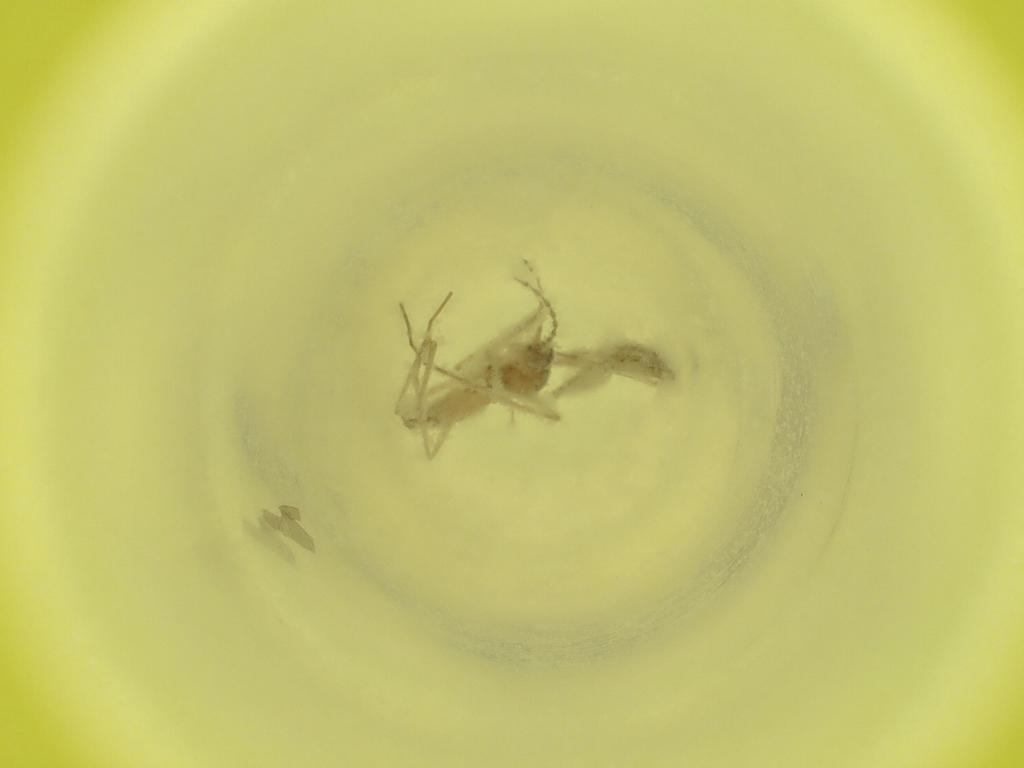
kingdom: Animalia
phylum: Arthropoda
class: Insecta
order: Diptera
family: Cecidomyiidae
